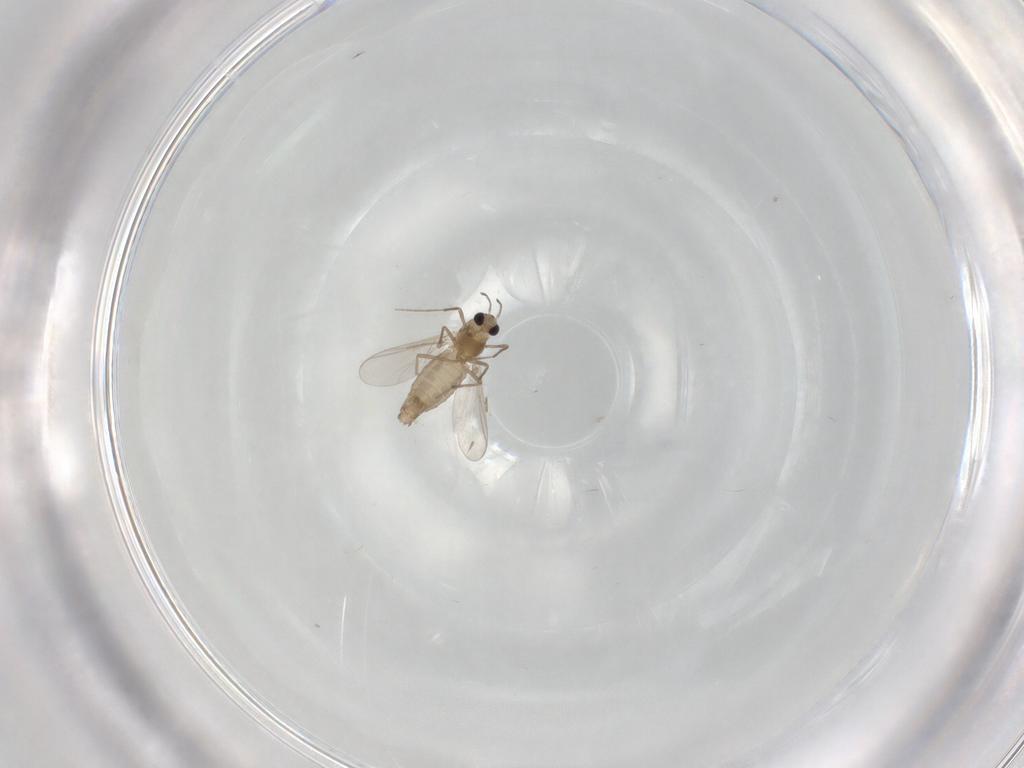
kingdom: Animalia
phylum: Arthropoda
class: Insecta
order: Diptera
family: Chironomidae
